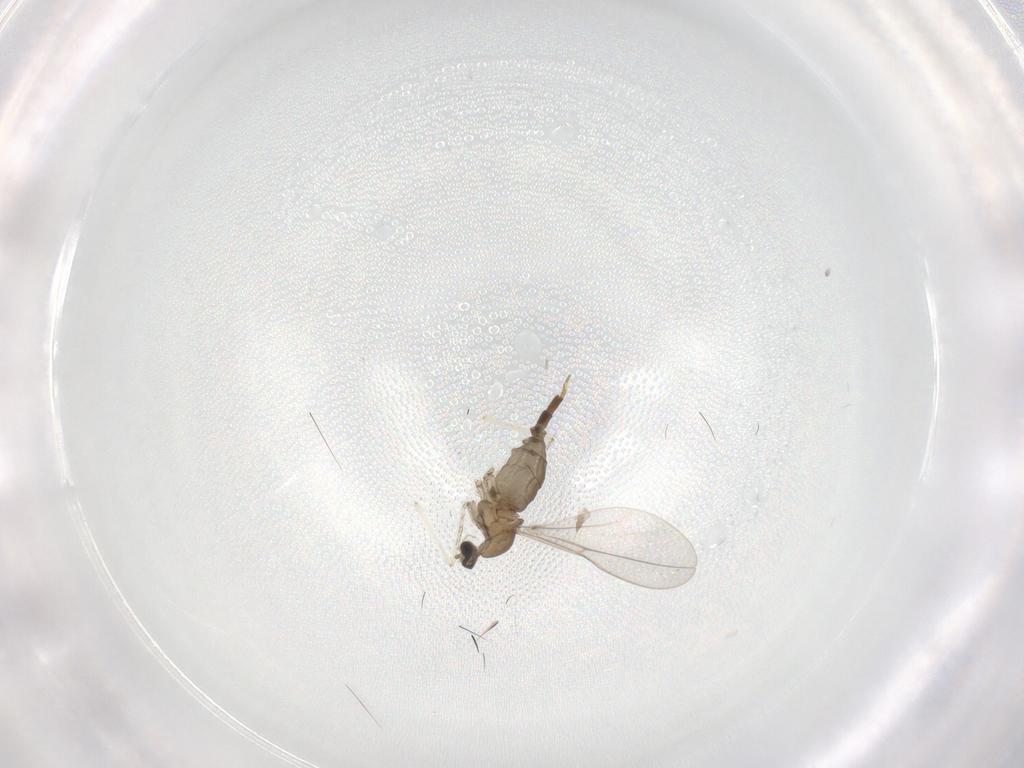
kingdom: Animalia
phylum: Arthropoda
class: Insecta
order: Diptera
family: Cecidomyiidae
